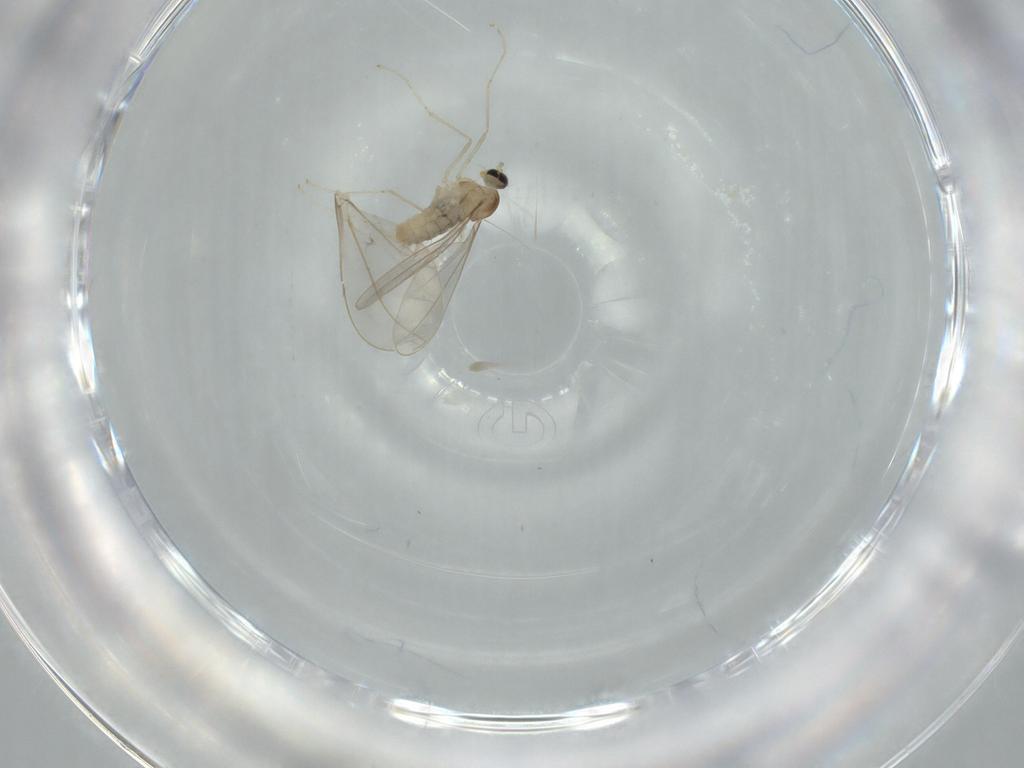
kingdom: Animalia
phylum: Arthropoda
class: Insecta
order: Diptera
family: Cecidomyiidae
